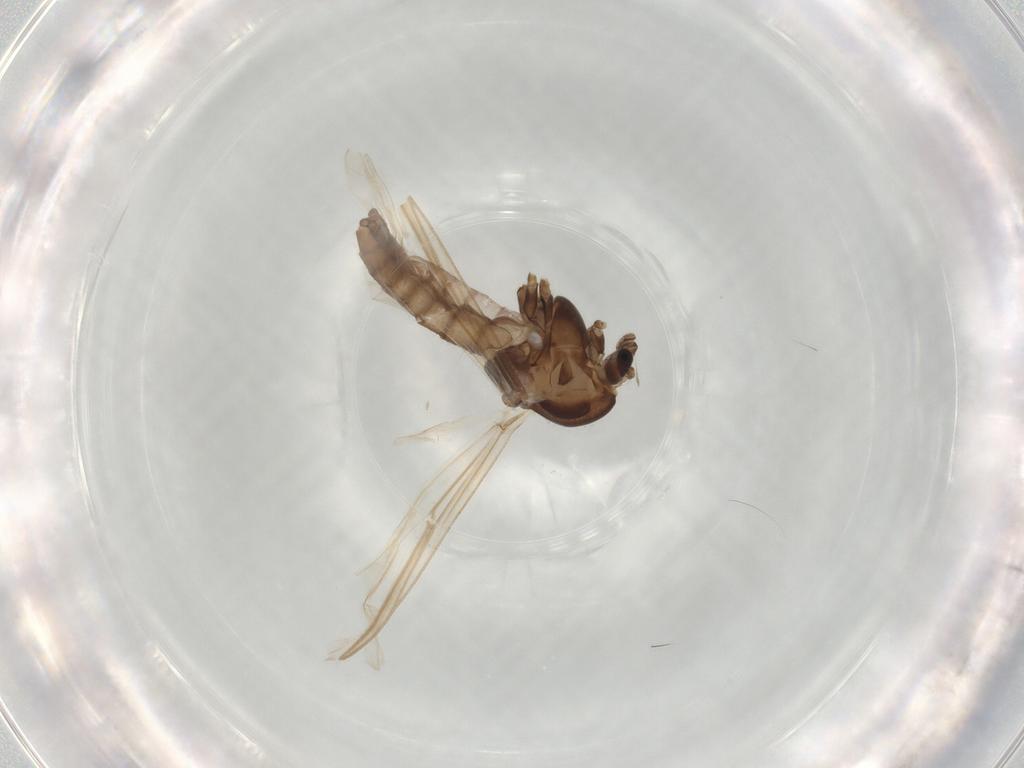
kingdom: Animalia
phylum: Arthropoda
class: Insecta
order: Diptera
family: Chironomidae
